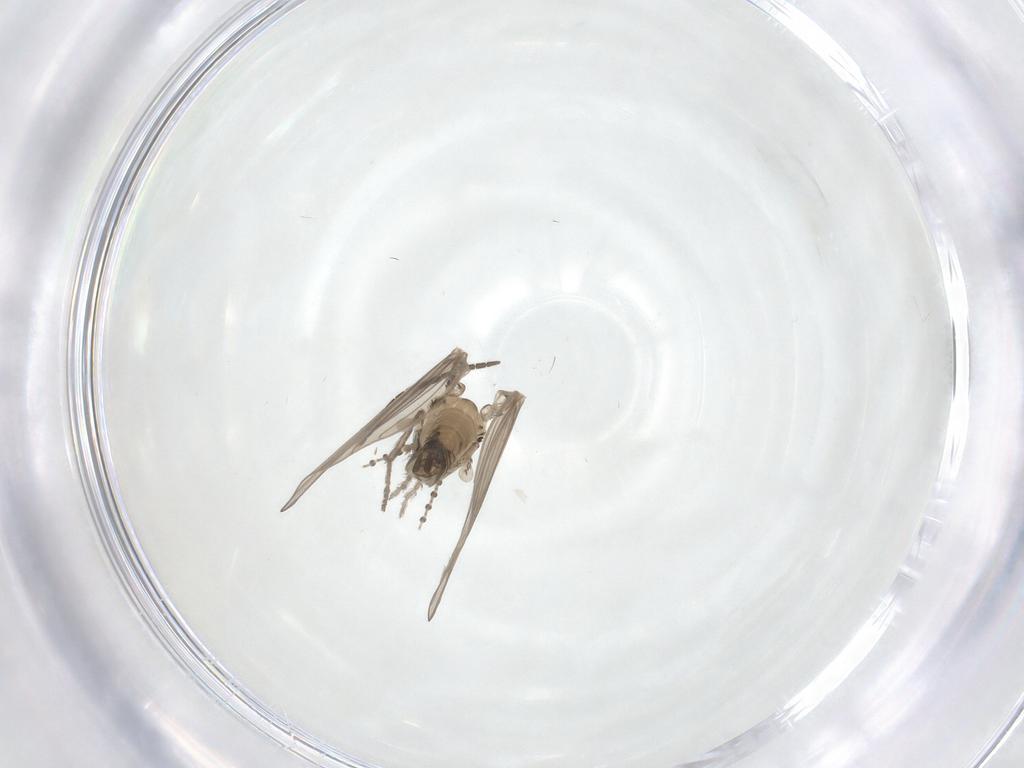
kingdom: Animalia
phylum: Arthropoda
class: Insecta
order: Diptera
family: Psychodidae
